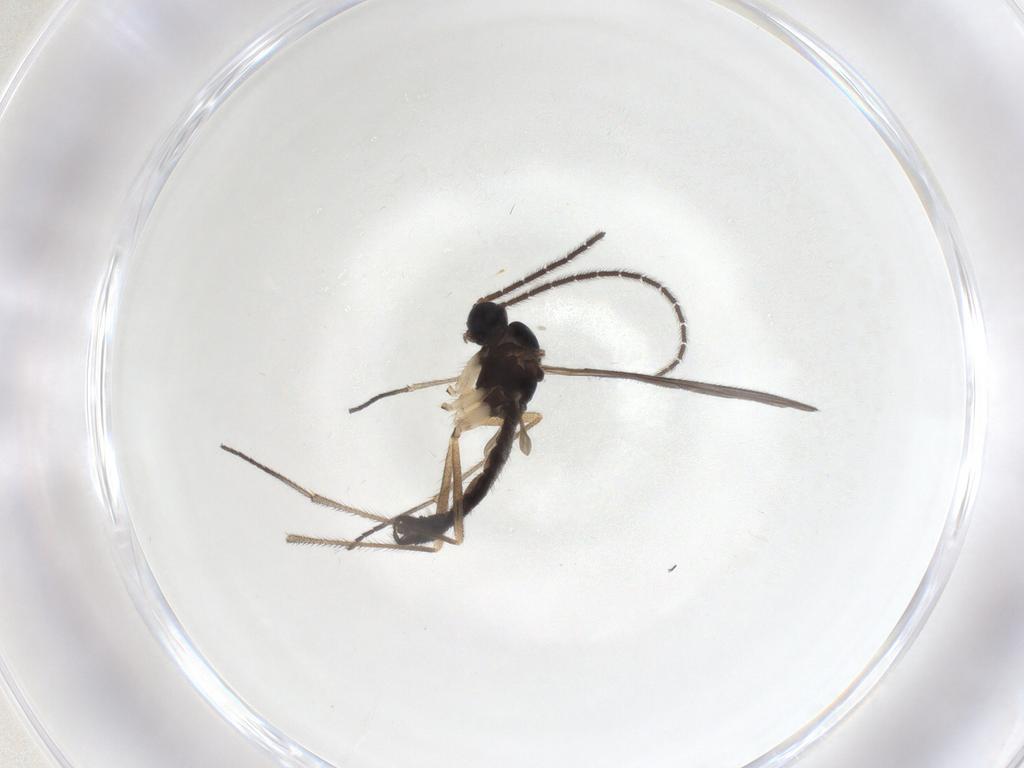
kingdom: Animalia
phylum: Arthropoda
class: Insecta
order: Diptera
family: Sciaridae
